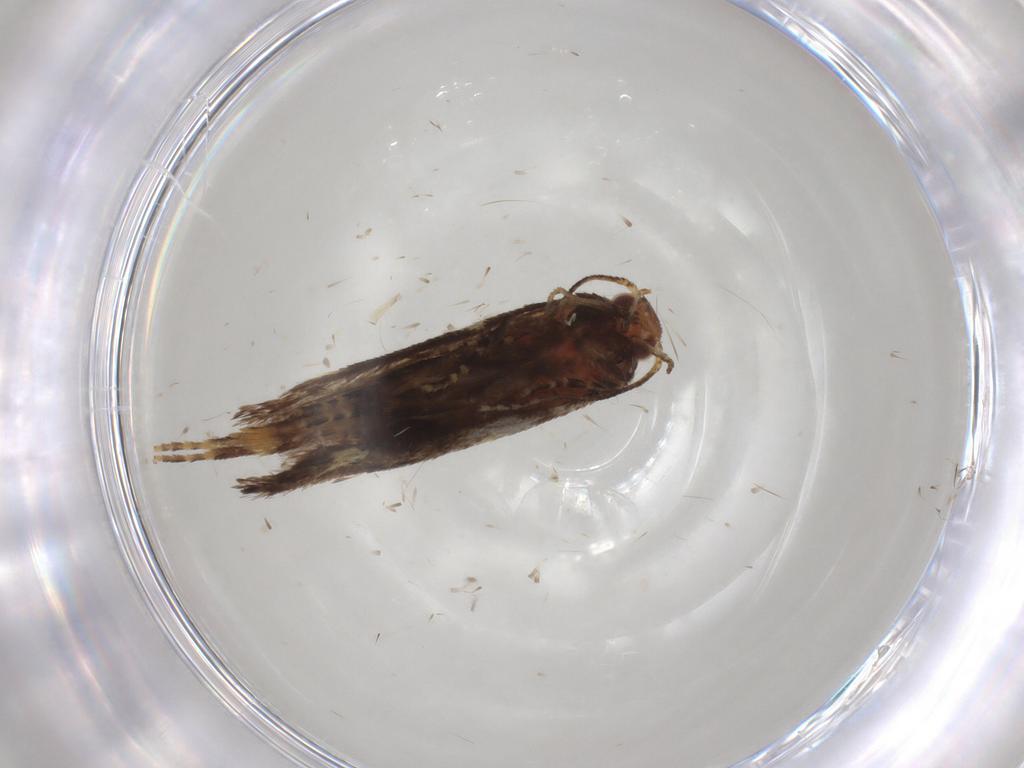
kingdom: Animalia
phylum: Arthropoda
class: Insecta
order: Lepidoptera
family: Oecophoridae
